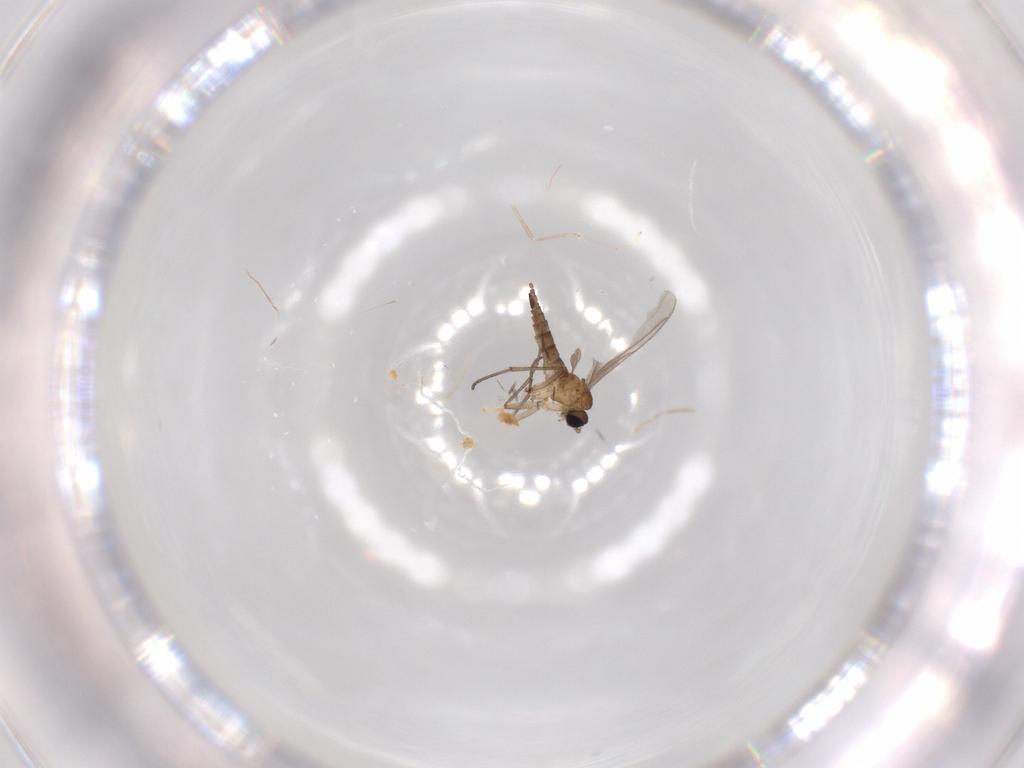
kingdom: Animalia
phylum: Arthropoda
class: Insecta
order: Diptera
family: Sciaridae
